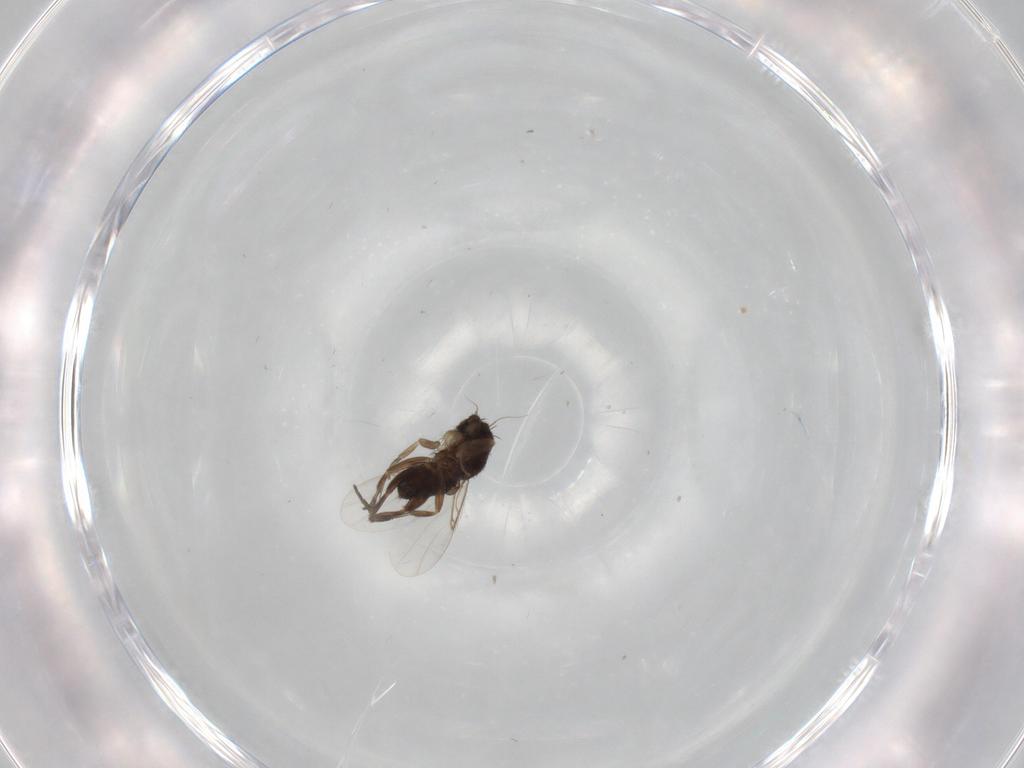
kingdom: Animalia
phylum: Arthropoda
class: Insecta
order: Diptera
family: Phoridae
